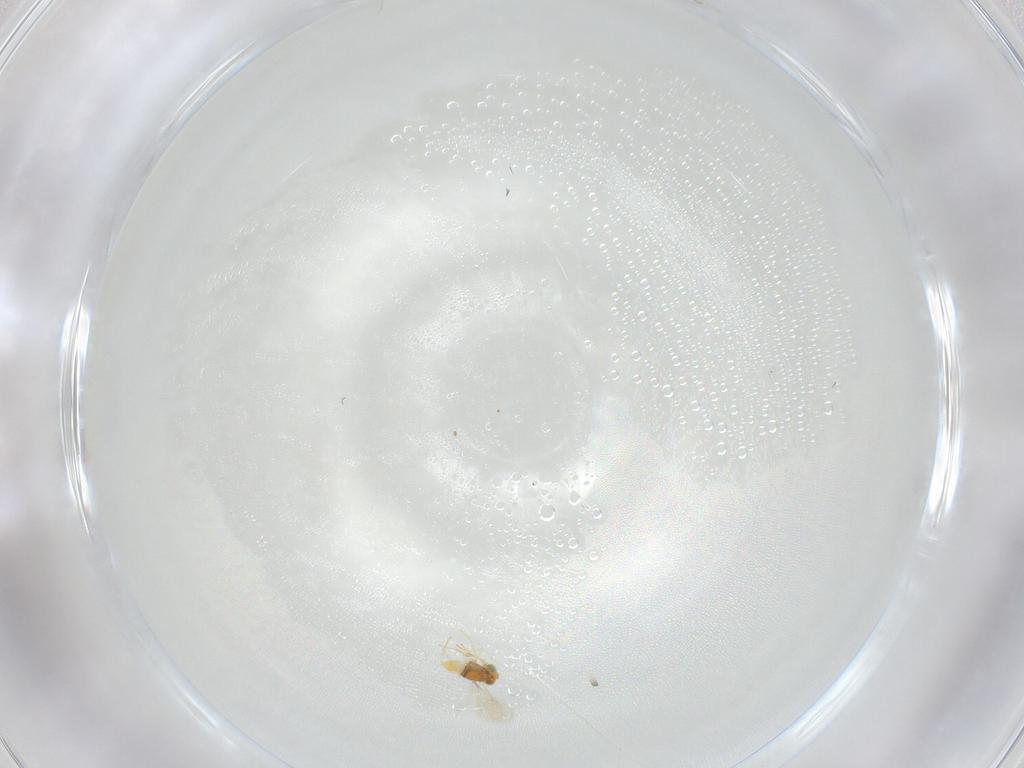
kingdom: Animalia
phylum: Arthropoda
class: Insecta
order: Hymenoptera
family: Aphelinidae
